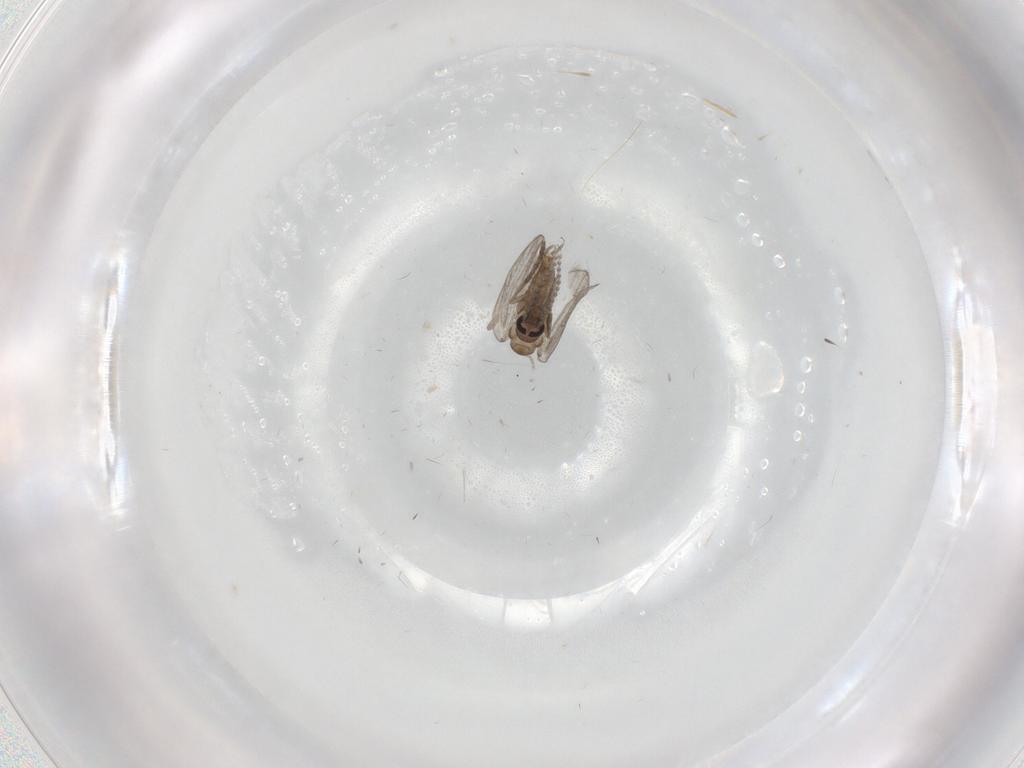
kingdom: Animalia
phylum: Arthropoda
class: Insecta
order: Diptera
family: Psychodidae
